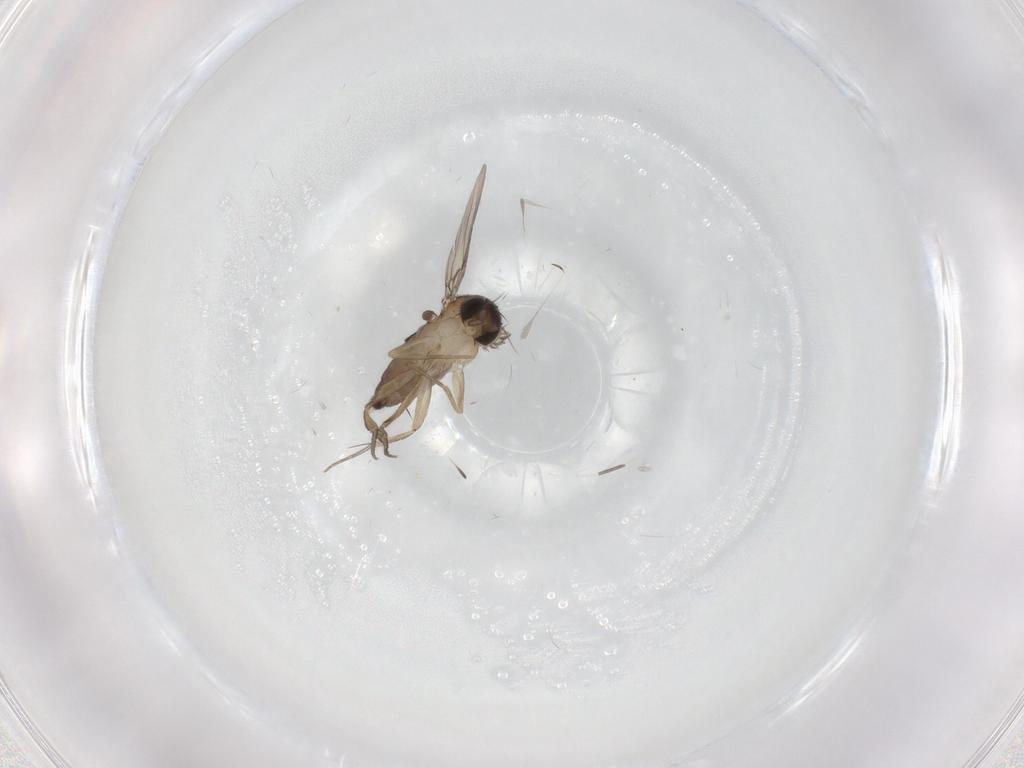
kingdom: Animalia
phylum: Arthropoda
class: Insecta
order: Diptera
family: Phoridae
